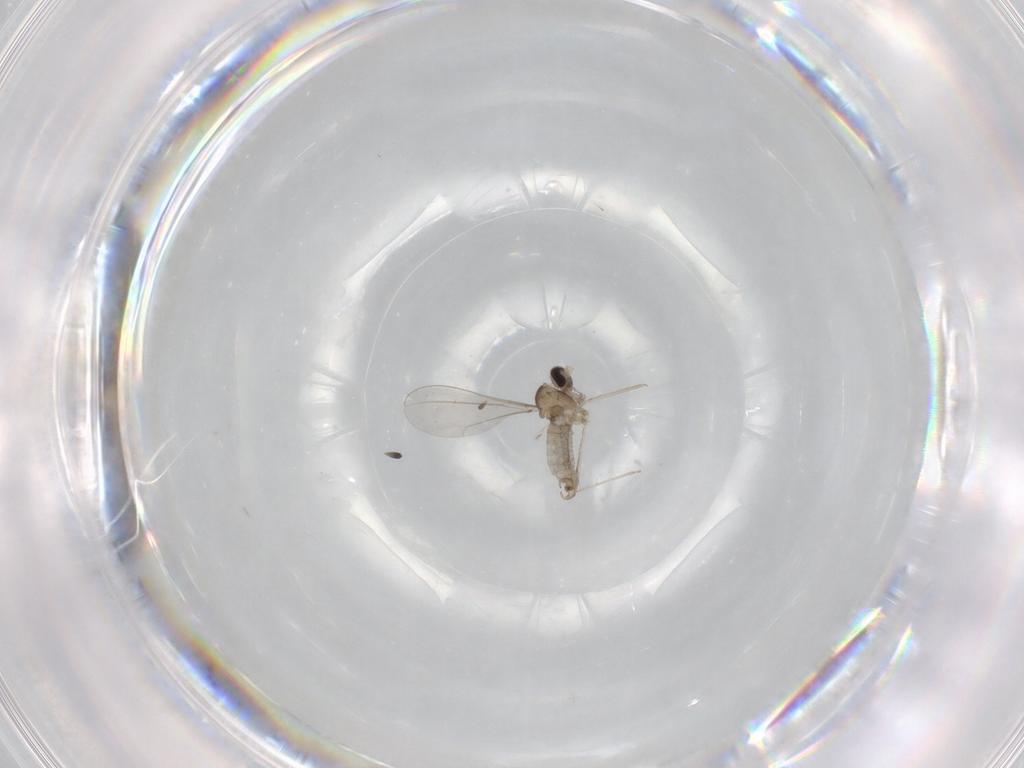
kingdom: Animalia
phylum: Arthropoda
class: Insecta
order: Diptera
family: Cecidomyiidae
